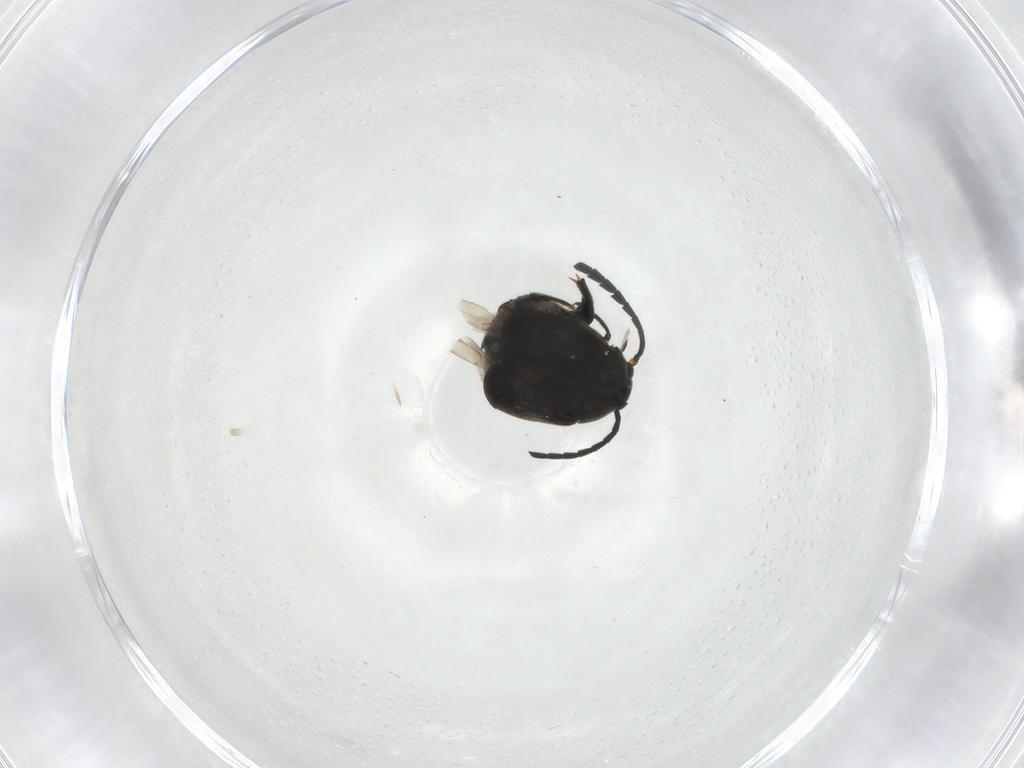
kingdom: Animalia
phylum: Arthropoda
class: Insecta
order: Coleoptera
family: Chrysomelidae
